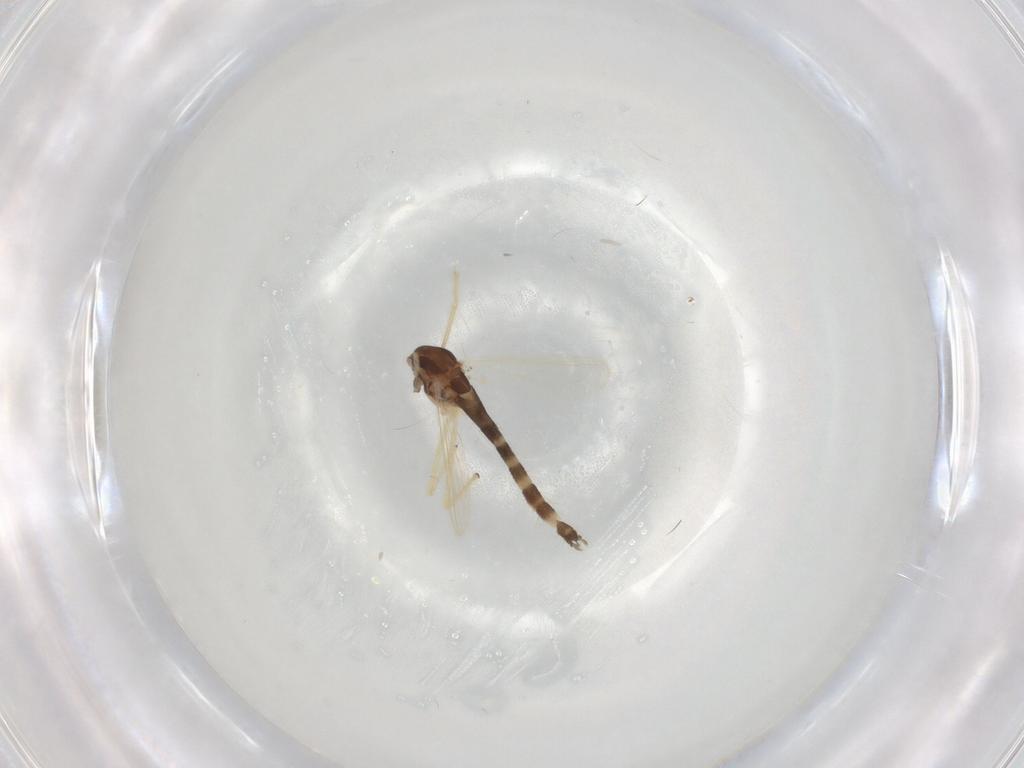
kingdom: Animalia
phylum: Arthropoda
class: Insecta
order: Diptera
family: Chironomidae
